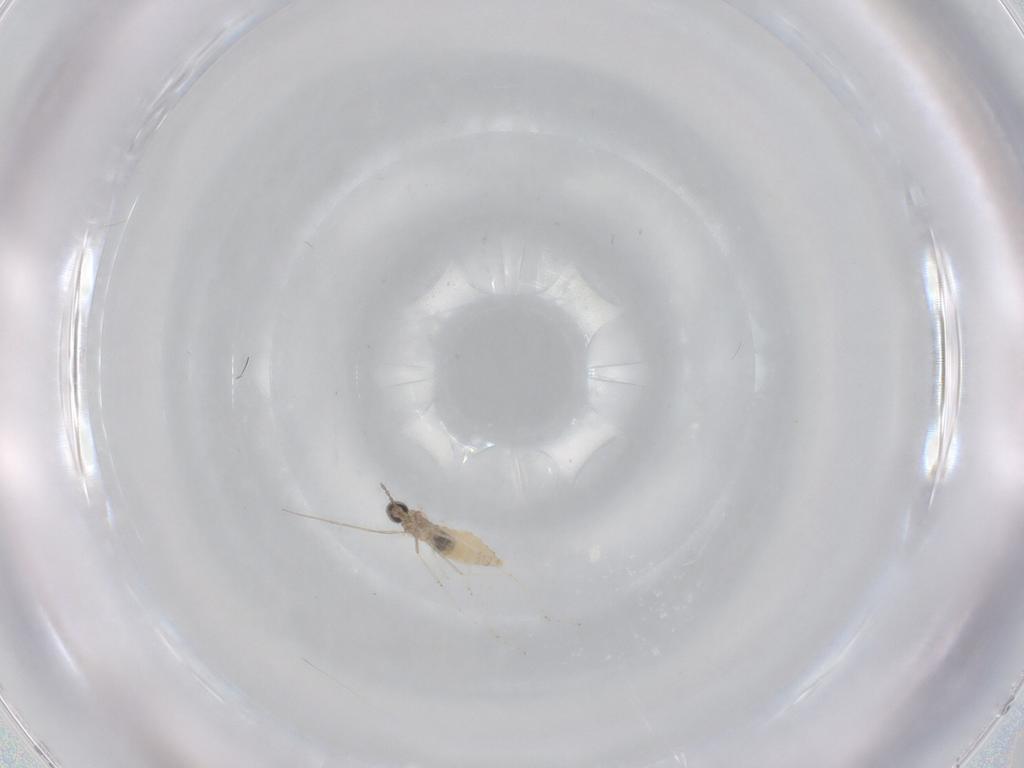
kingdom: Animalia
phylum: Arthropoda
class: Insecta
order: Diptera
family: Cecidomyiidae
